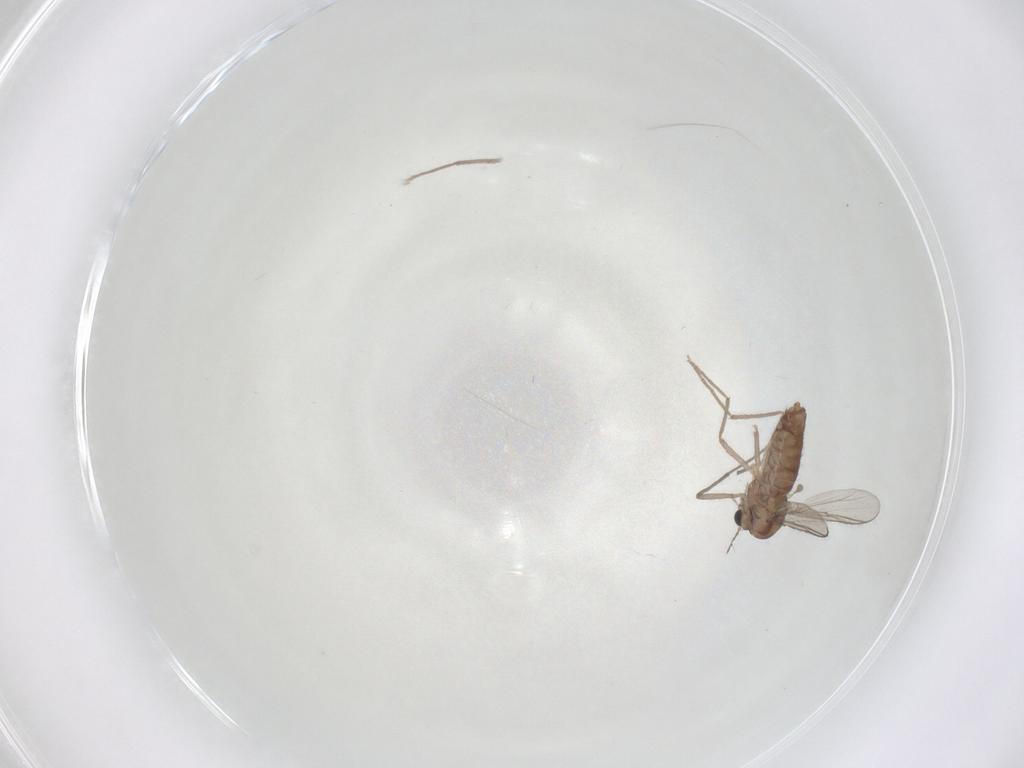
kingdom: Animalia
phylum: Arthropoda
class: Insecta
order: Diptera
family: Chironomidae
